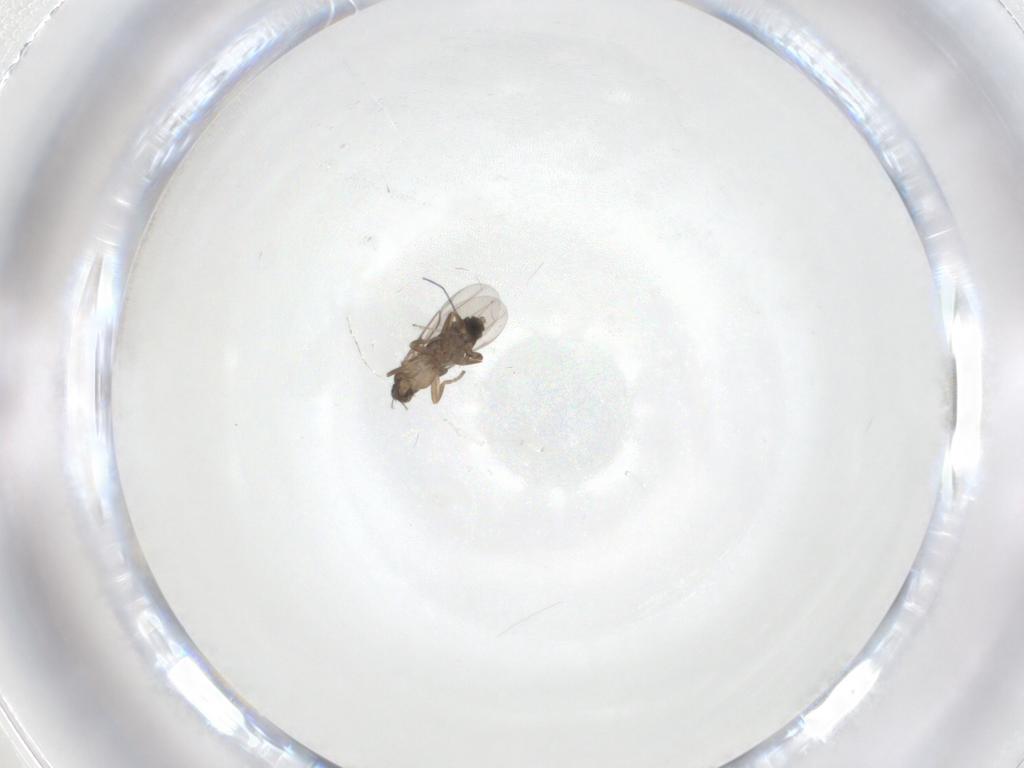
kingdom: Animalia
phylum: Arthropoda
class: Insecta
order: Diptera
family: Phoridae
